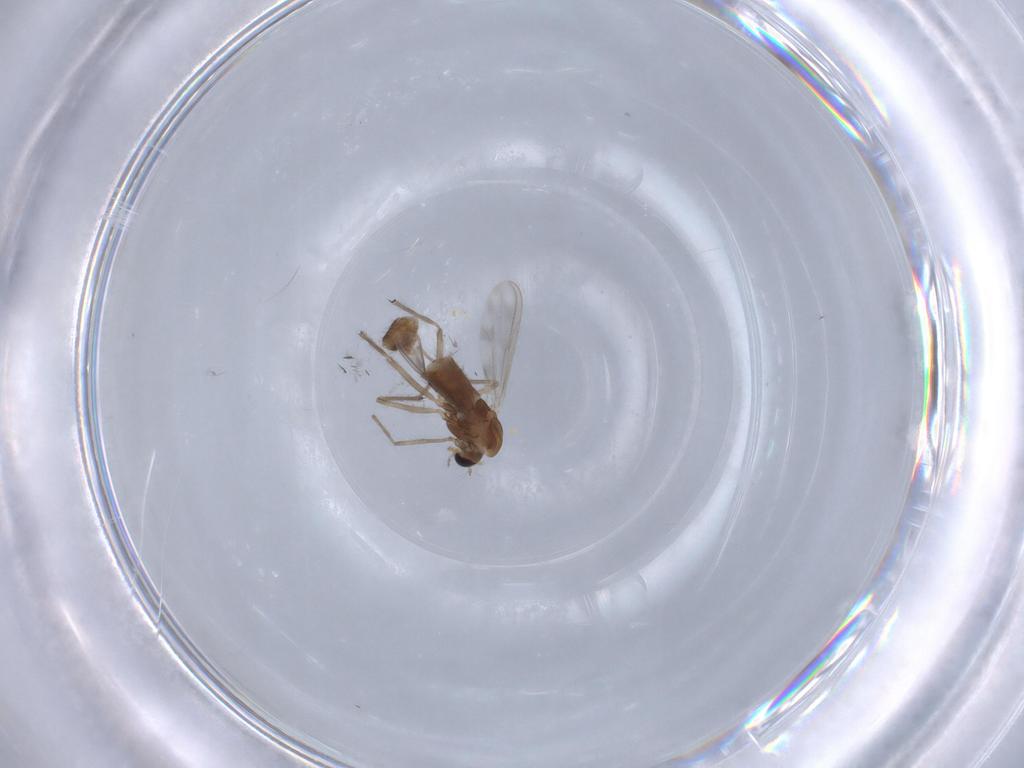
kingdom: Animalia
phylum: Arthropoda
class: Insecta
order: Diptera
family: Chironomidae
